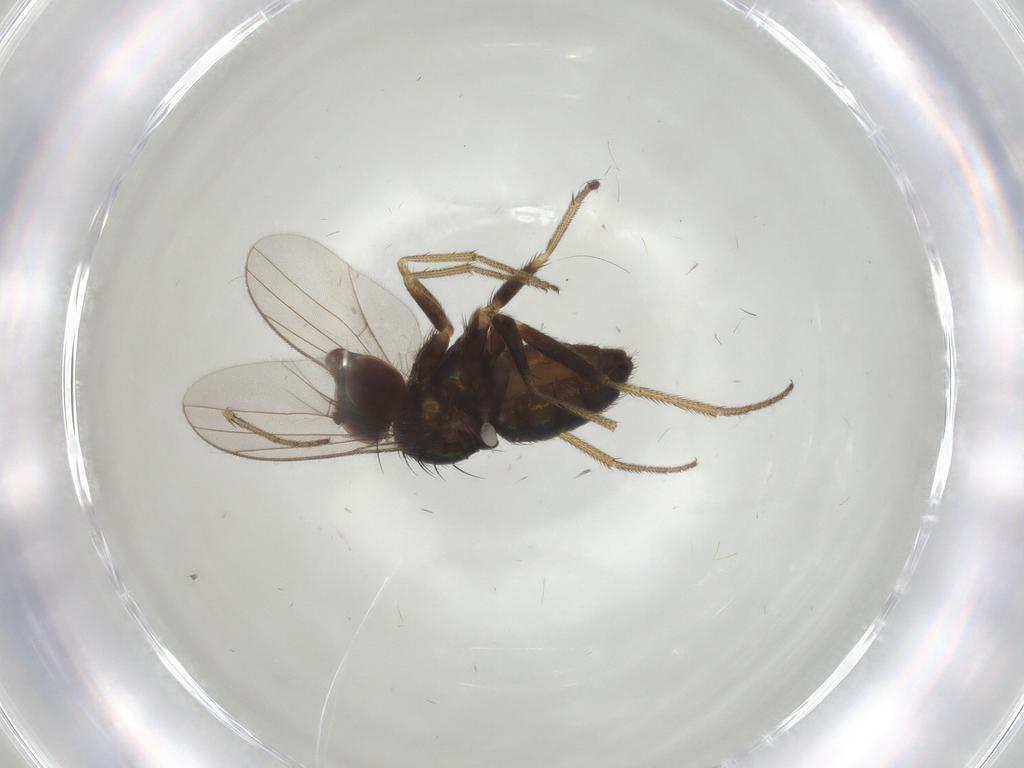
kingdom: Animalia
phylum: Arthropoda
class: Insecta
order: Diptera
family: Dolichopodidae
